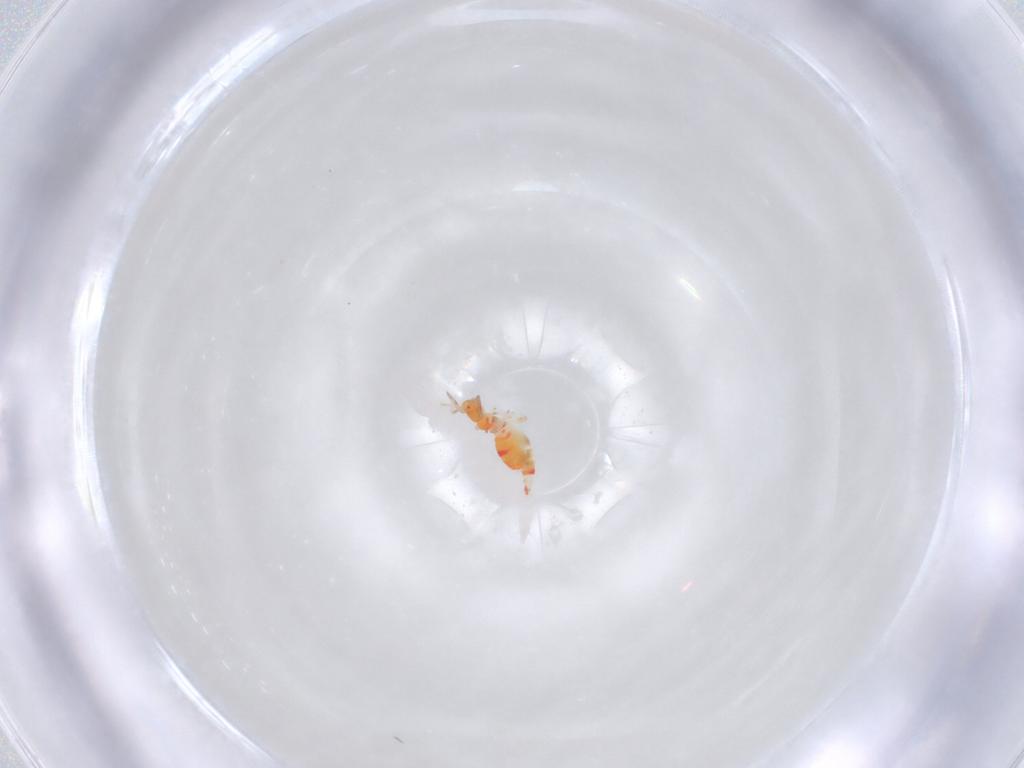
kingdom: Animalia
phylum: Arthropoda
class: Insecta
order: Thysanoptera
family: Aeolothripidae
